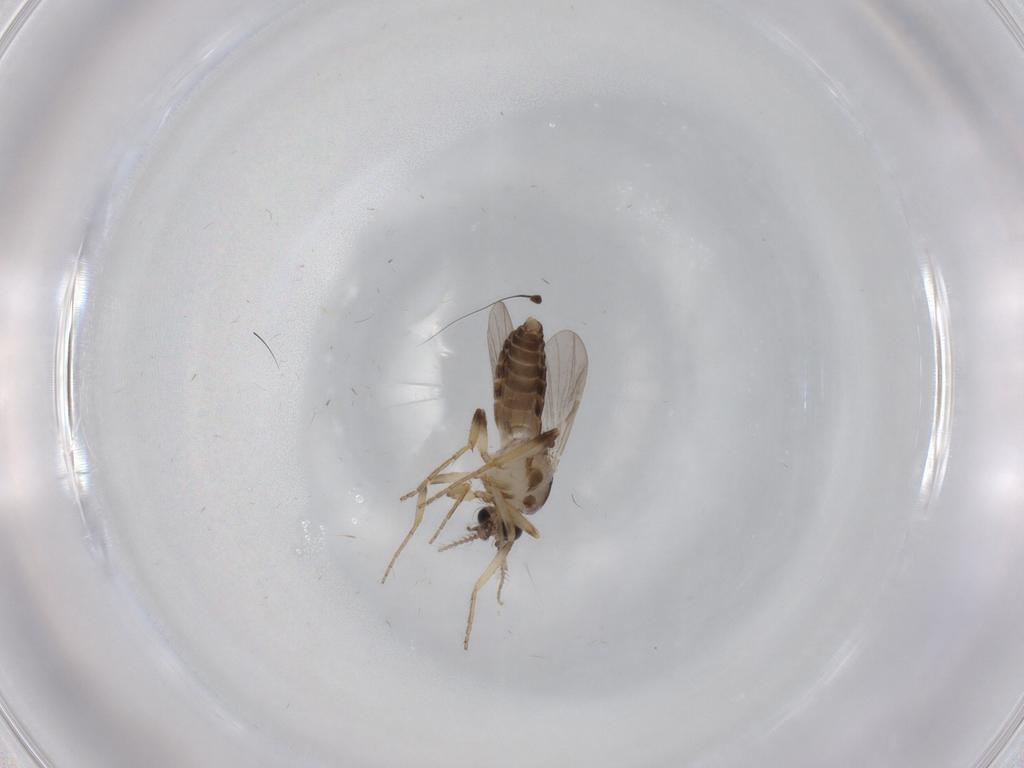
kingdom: Animalia
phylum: Arthropoda
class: Insecta
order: Diptera
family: Ceratopogonidae
